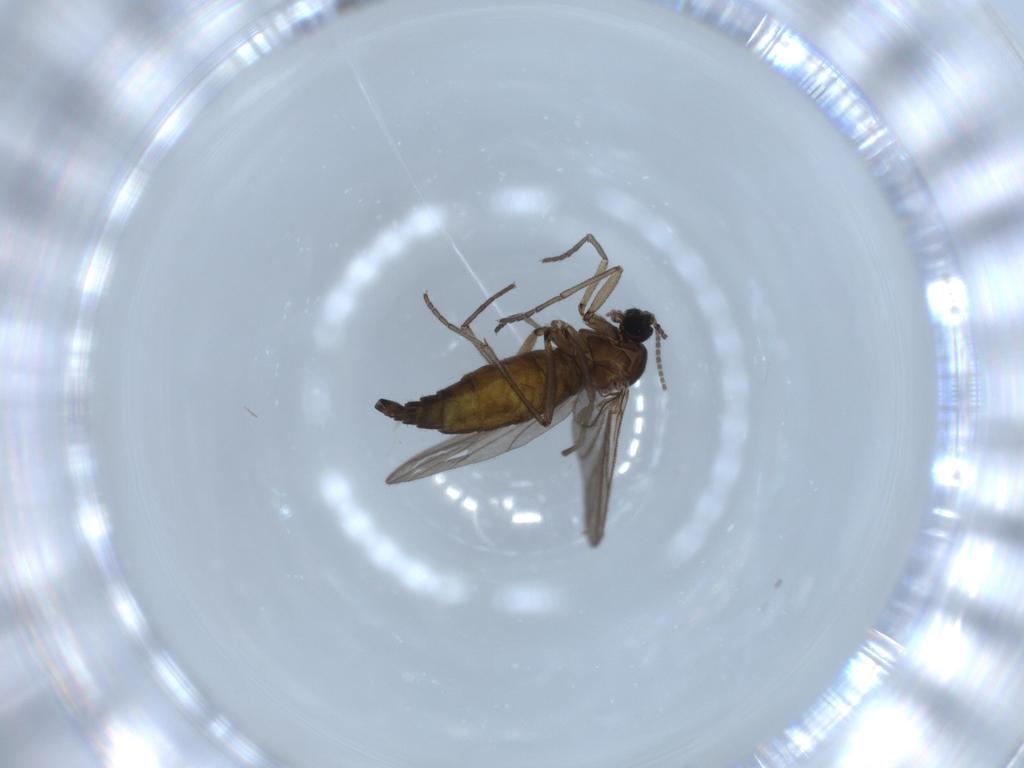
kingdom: Animalia
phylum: Arthropoda
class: Insecta
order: Diptera
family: Sciaridae
